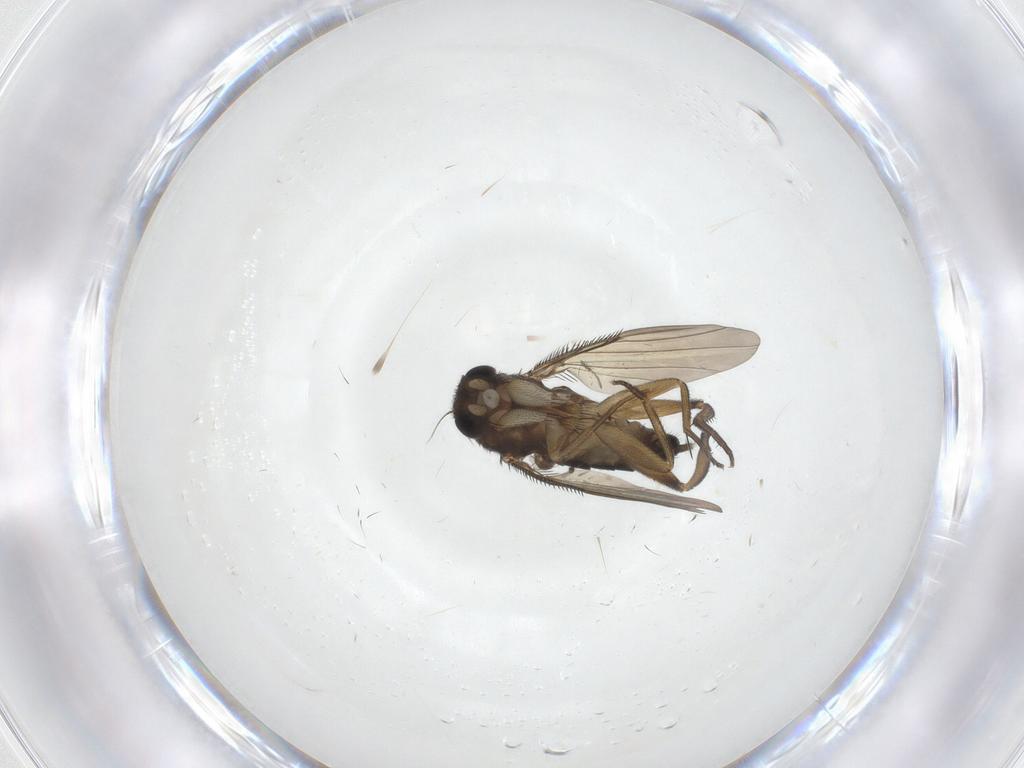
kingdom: Animalia
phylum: Arthropoda
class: Insecta
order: Diptera
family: Phoridae
